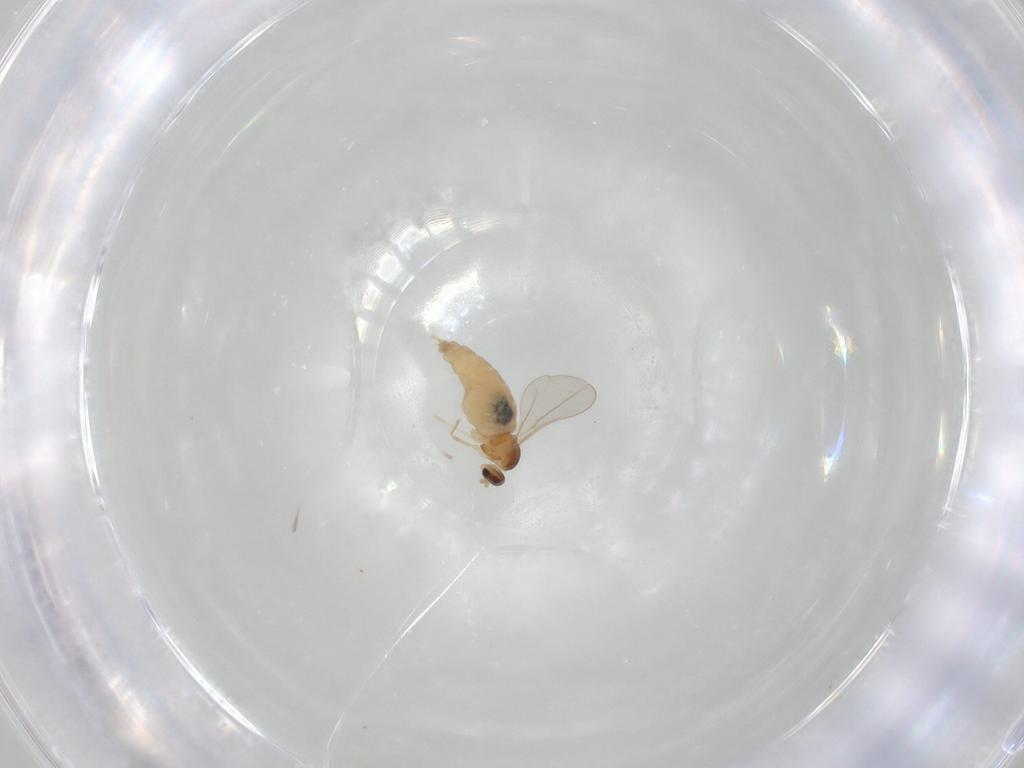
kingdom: Animalia
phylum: Arthropoda
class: Insecta
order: Diptera
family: Cecidomyiidae
